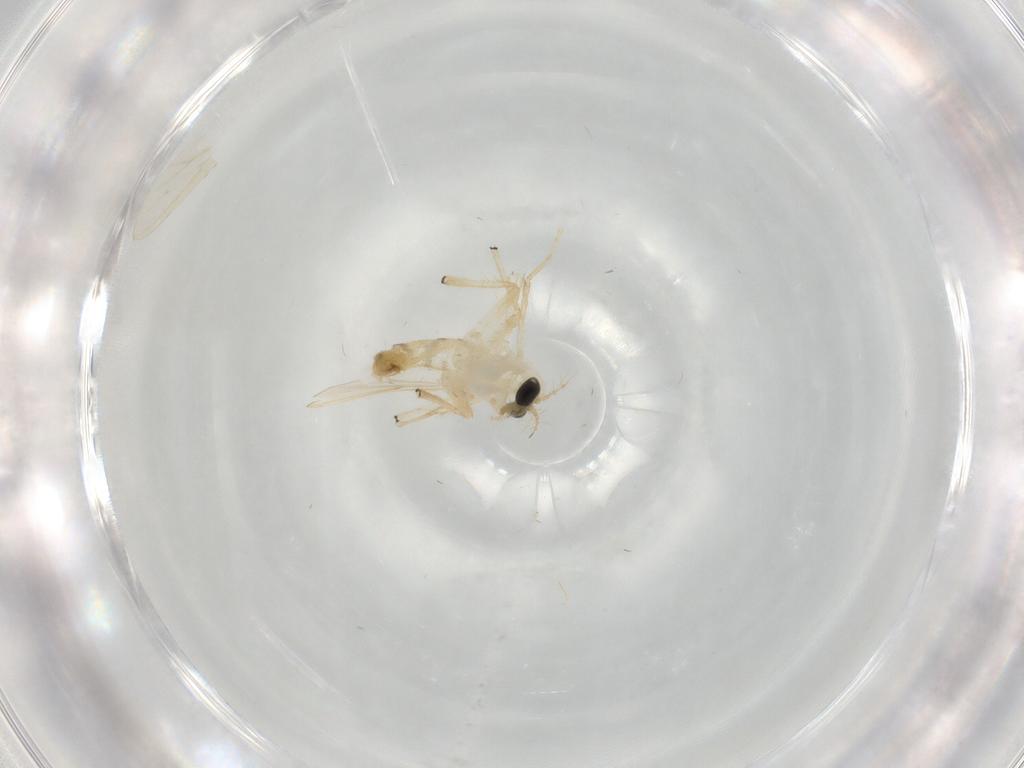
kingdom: Animalia
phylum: Arthropoda
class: Insecta
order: Diptera
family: Chironomidae
